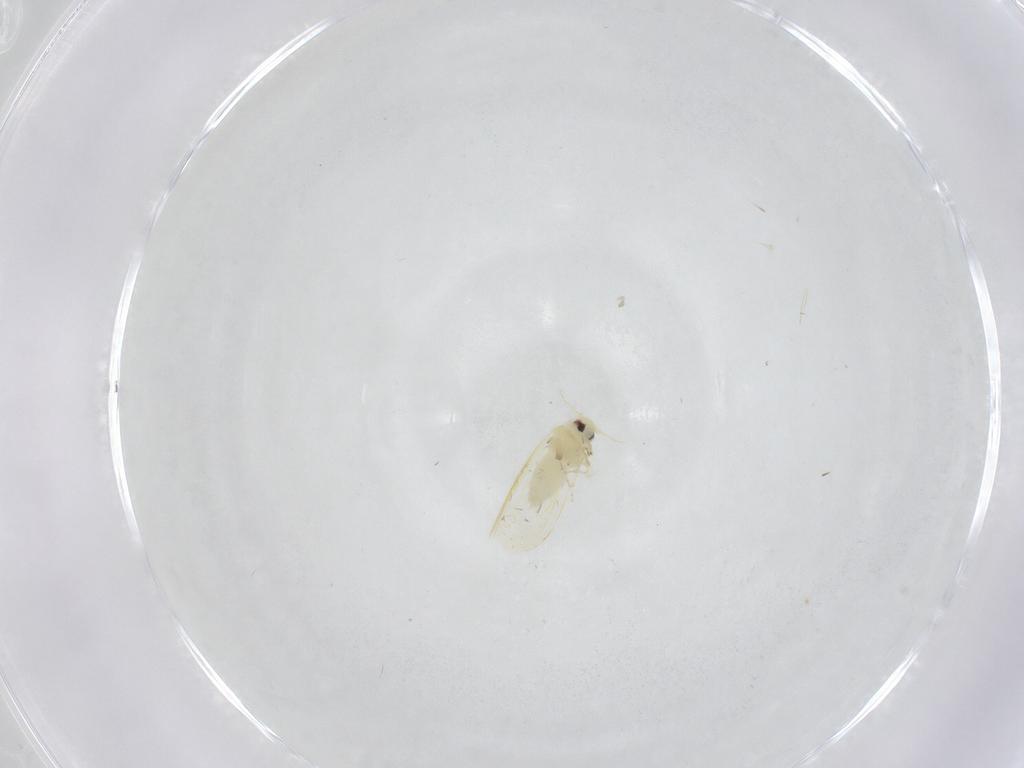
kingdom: Animalia
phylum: Arthropoda
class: Insecta
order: Hemiptera
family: Aleyrodidae
